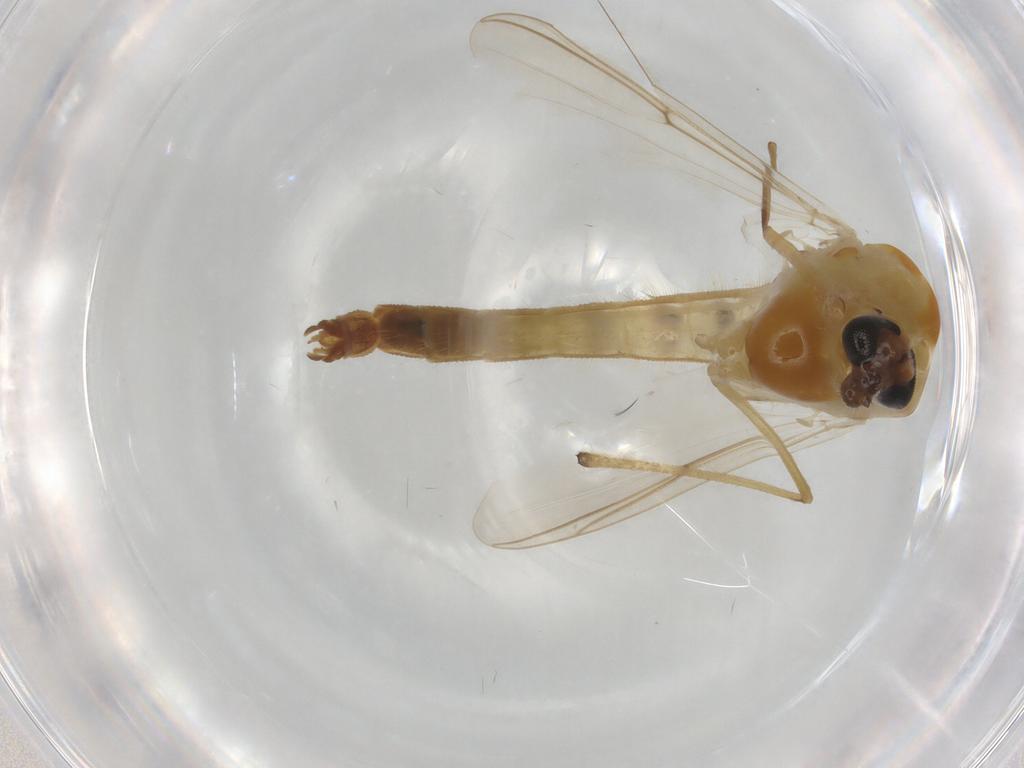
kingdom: Animalia
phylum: Arthropoda
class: Insecta
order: Diptera
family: Chironomidae
